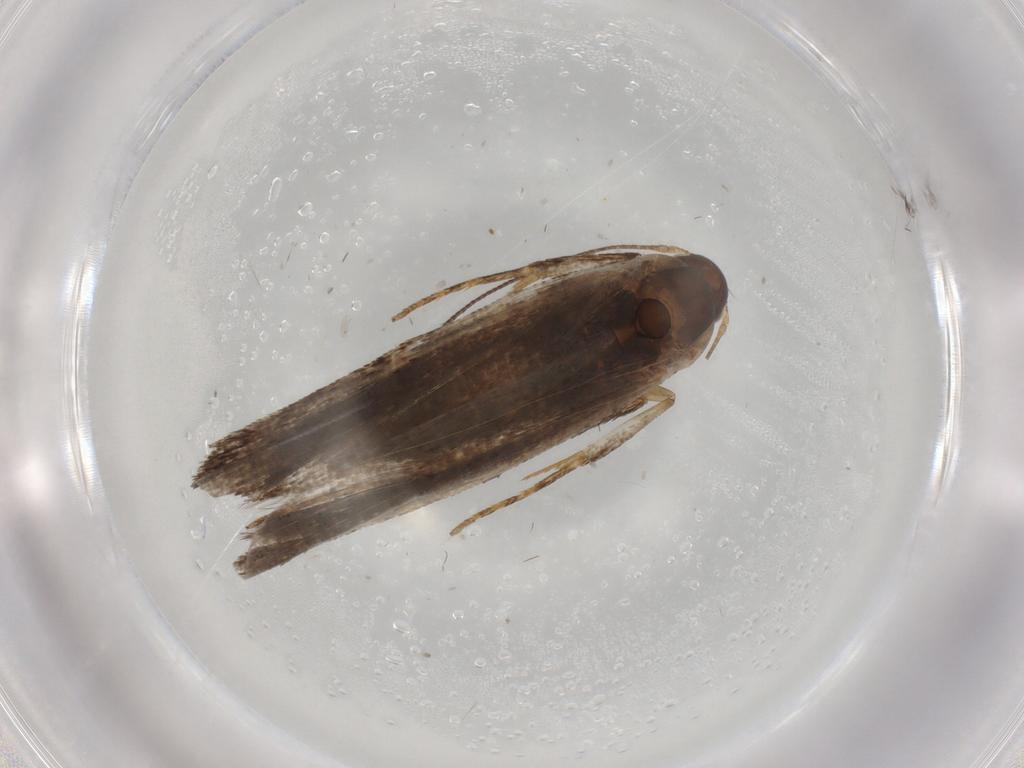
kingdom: Animalia
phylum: Arthropoda
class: Insecta
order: Lepidoptera
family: Gelechiidae
